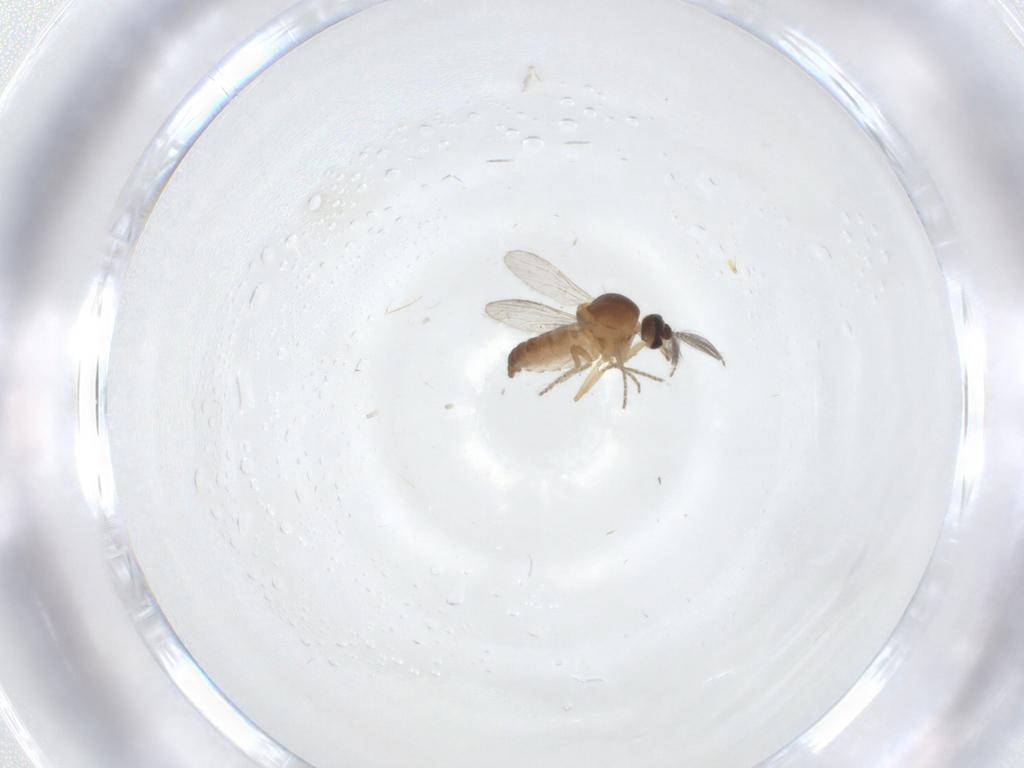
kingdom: Animalia
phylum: Arthropoda
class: Insecta
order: Diptera
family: Ceratopogonidae
